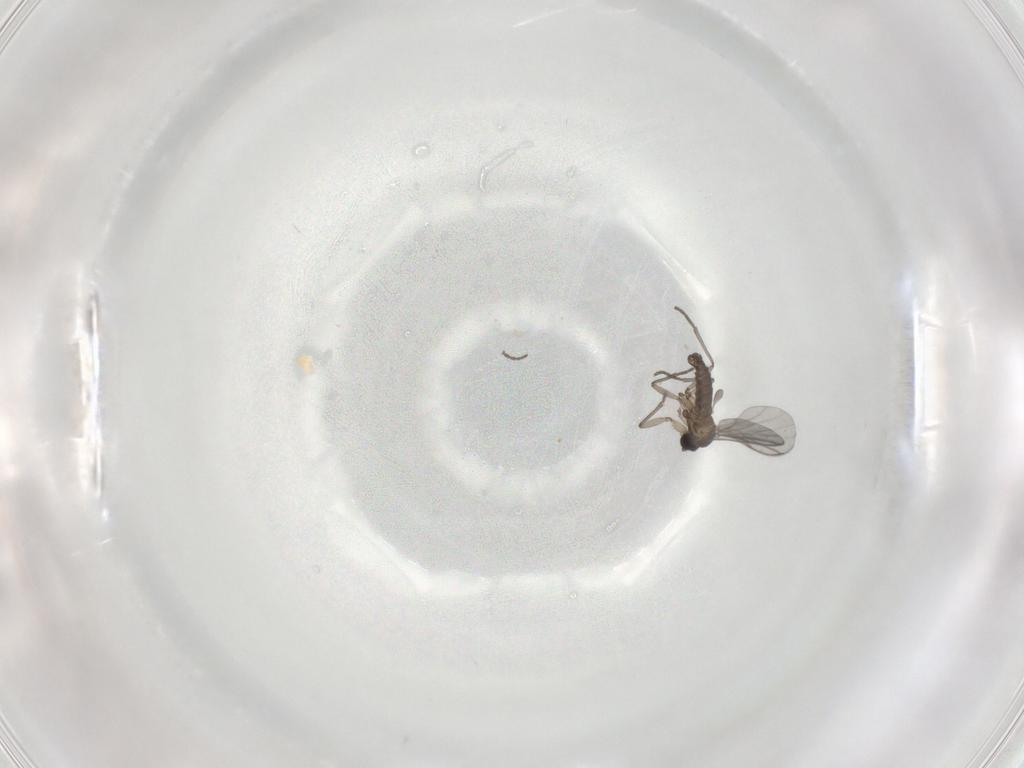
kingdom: Animalia
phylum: Arthropoda
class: Insecta
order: Diptera
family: Sciaridae
